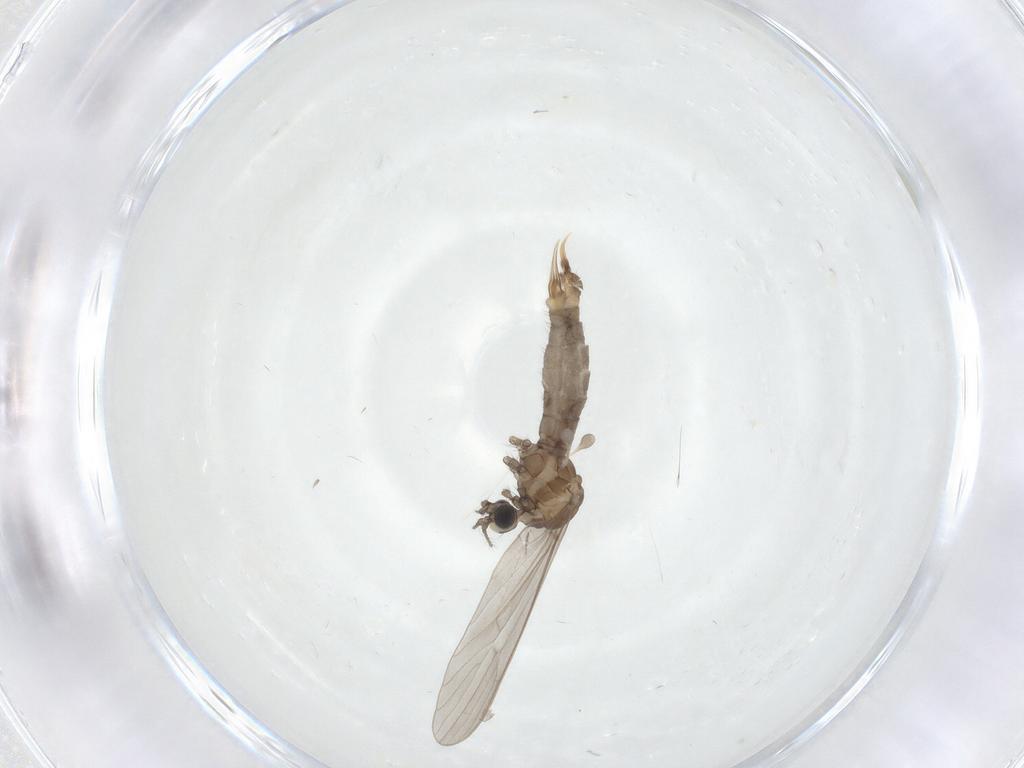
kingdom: Animalia
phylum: Arthropoda
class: Insecta
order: Diptera
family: Limoniidae
